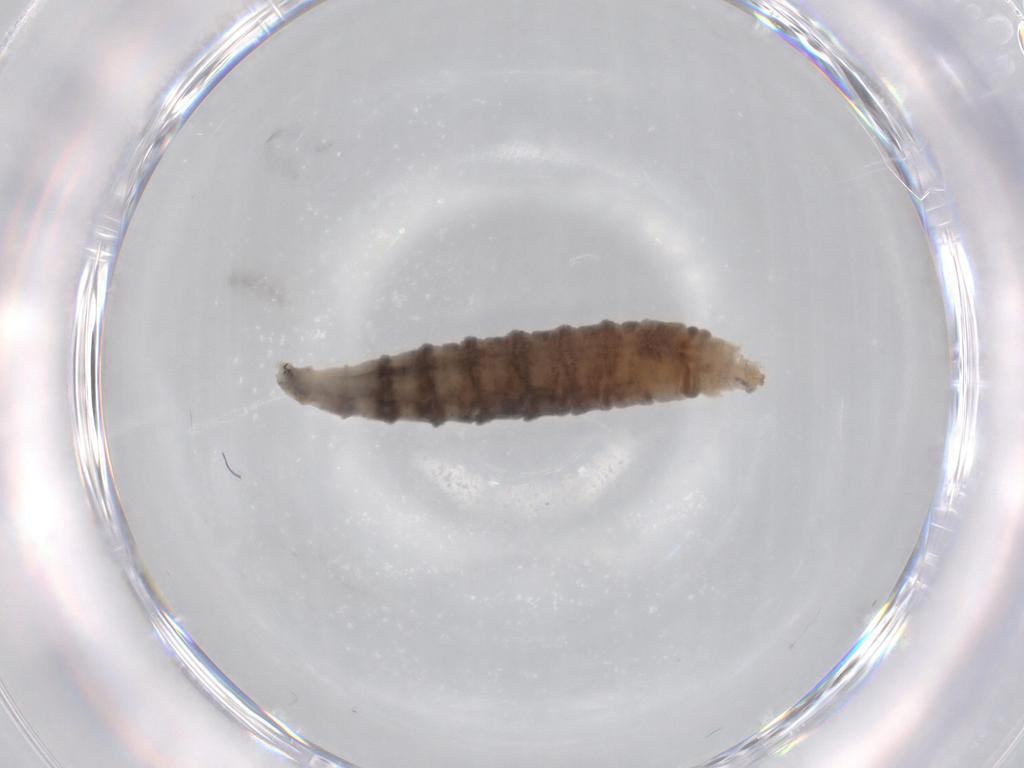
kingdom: Animalia
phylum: Arthropoda
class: Insecta
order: Diptera
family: Drosophilidae
